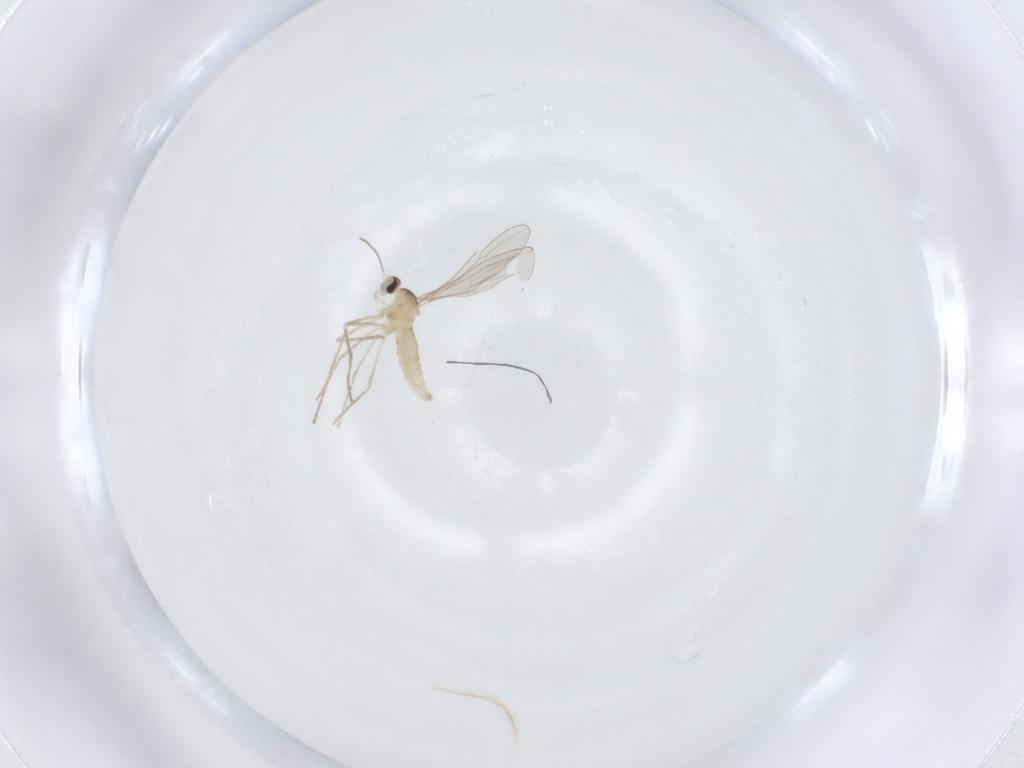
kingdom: Animalia
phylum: Arthropoda
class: Insecta
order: Diptera
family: Cecidomyiidae
